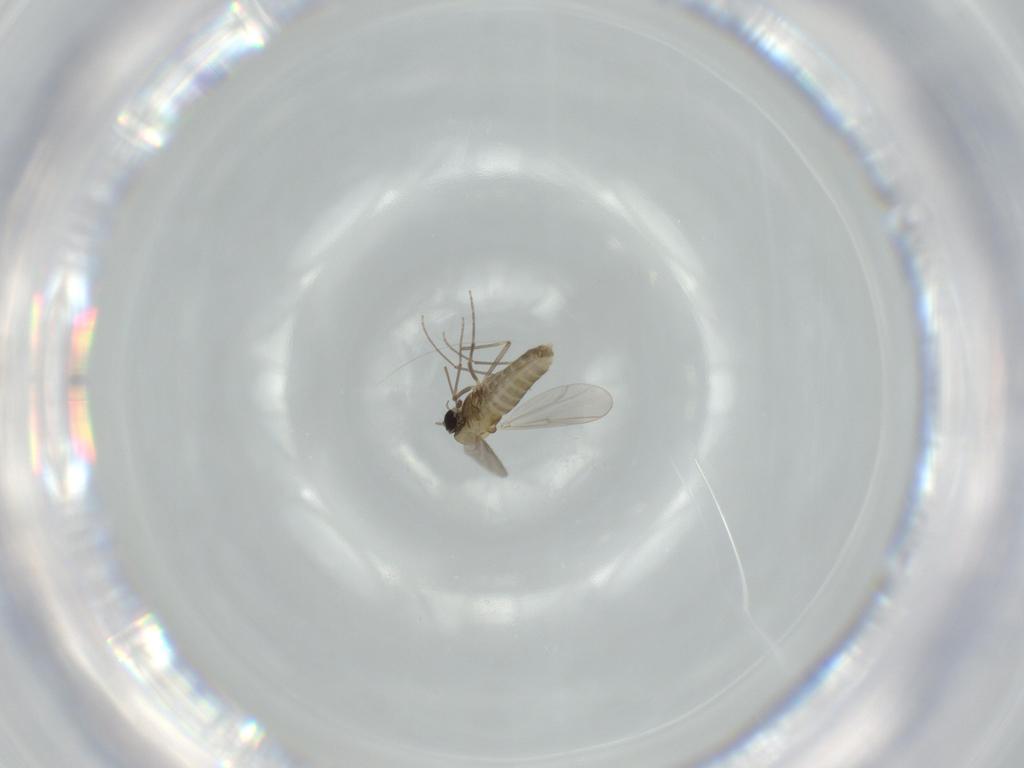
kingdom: Animalia
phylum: Arthropoda
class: Insecta
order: Diptera
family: Chironomidae
